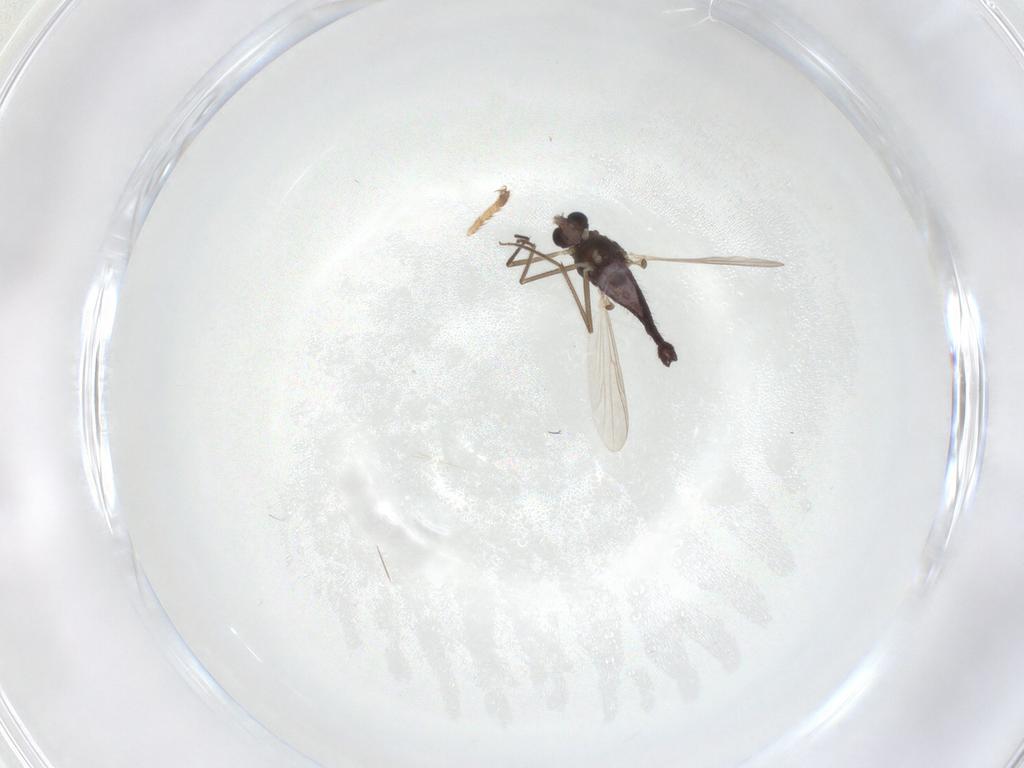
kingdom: Animalia
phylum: Arthropoda
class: Insecta
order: Diptera
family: Chironomidae
